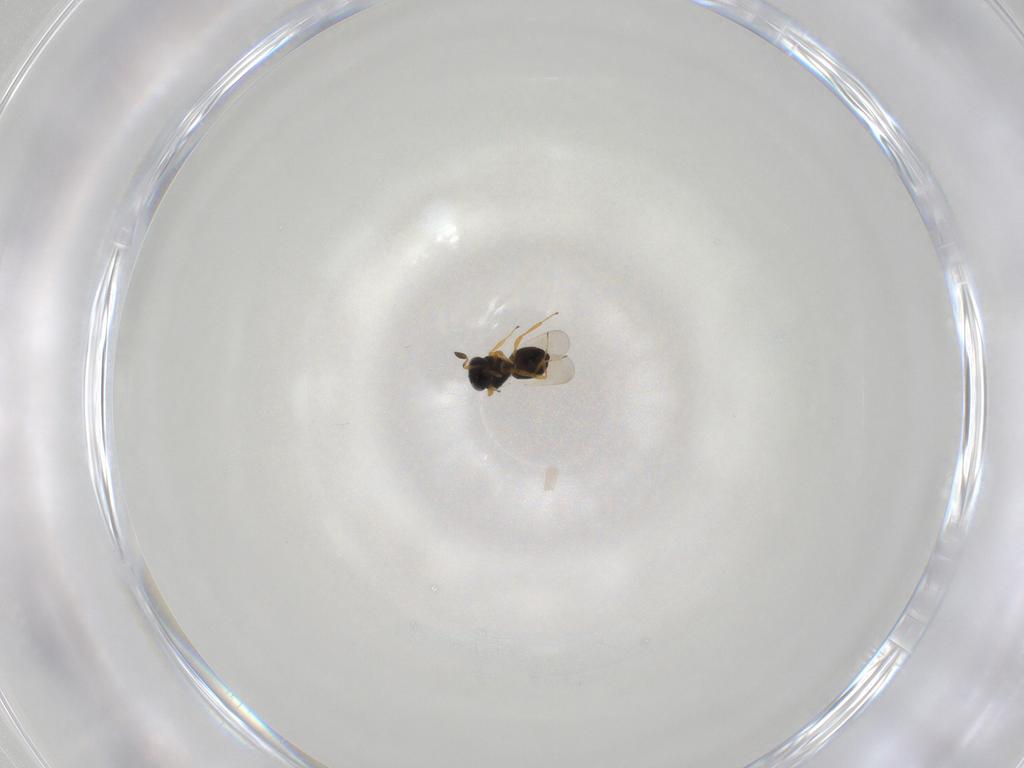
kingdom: Animalia
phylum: Arthropoda
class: Insecta
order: Hymenoptera
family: Platygastridae
